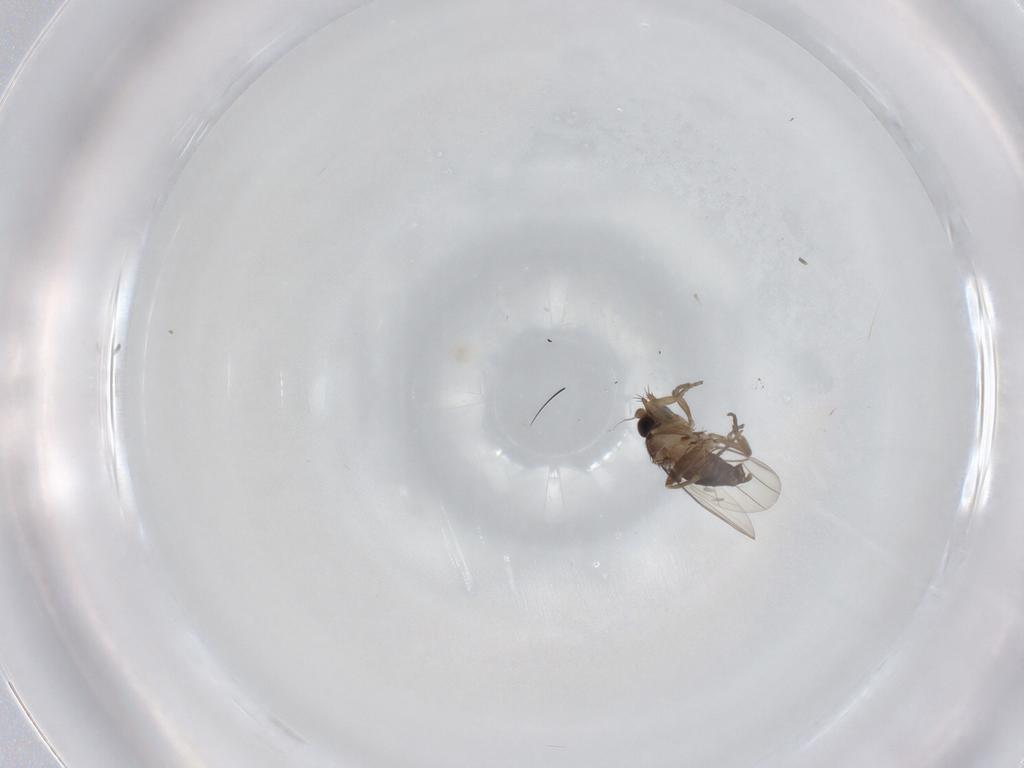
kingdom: Animalia
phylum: Arthropoda
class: Insecta
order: Diptera
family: Phoridae
